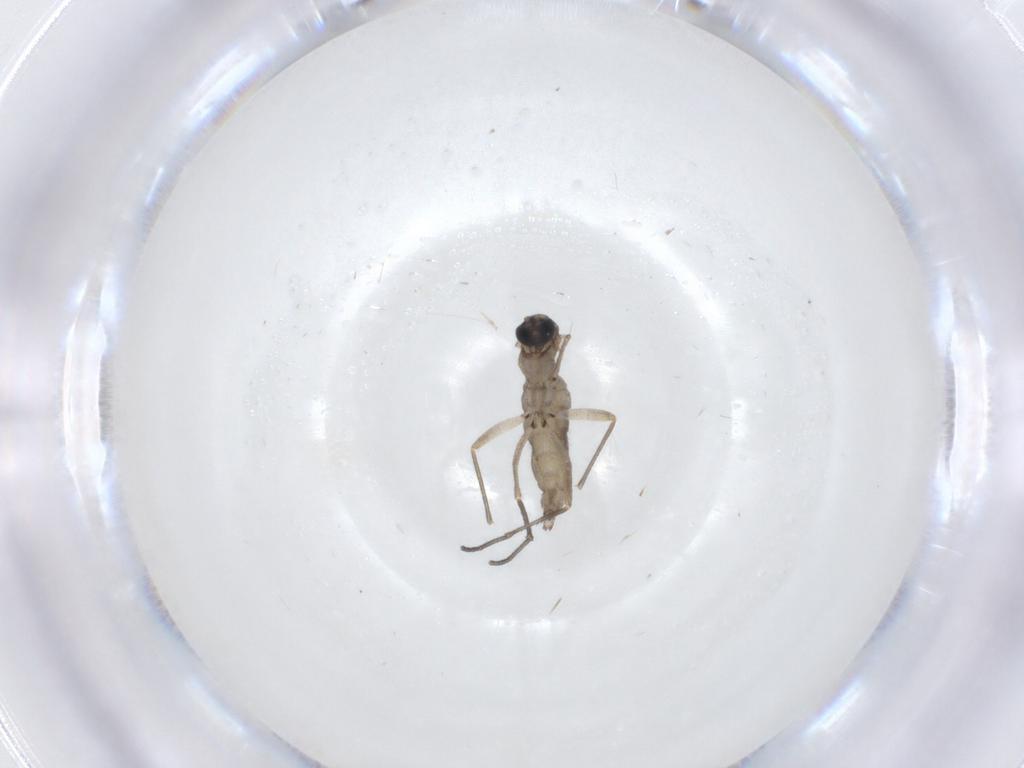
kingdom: Animalia
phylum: Arthropoda
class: Insecta
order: Diptera
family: Sciaridae
